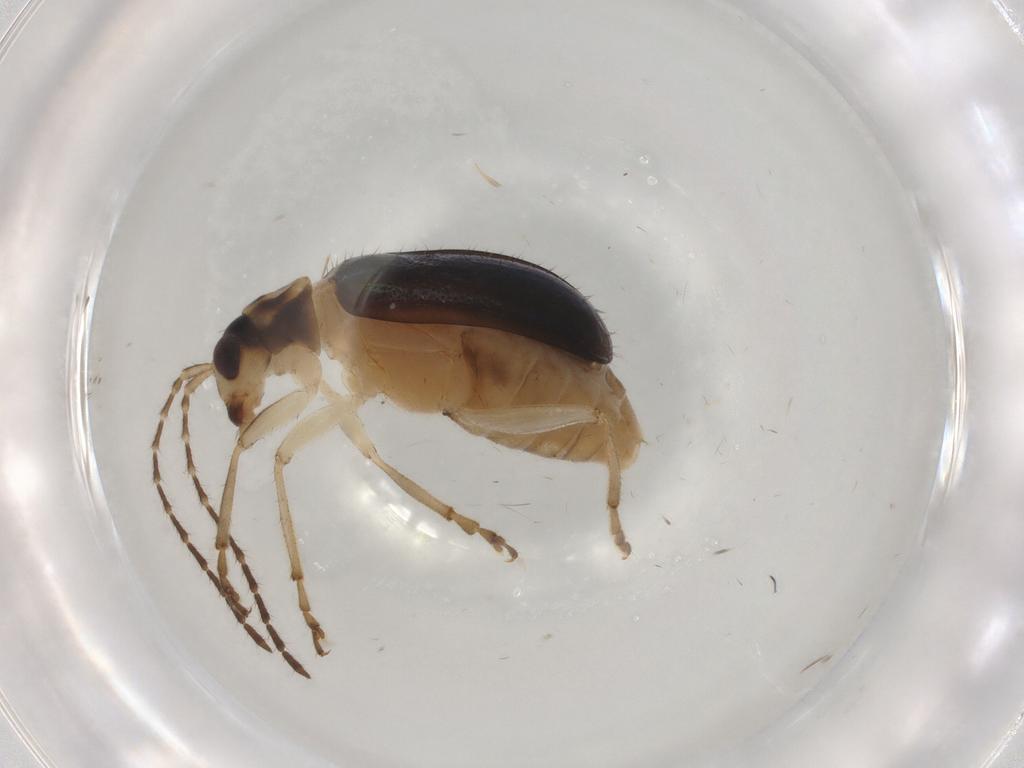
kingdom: Animalia
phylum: Arthropoda
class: Insecta
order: Coleoptera
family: Chrysomelidae
